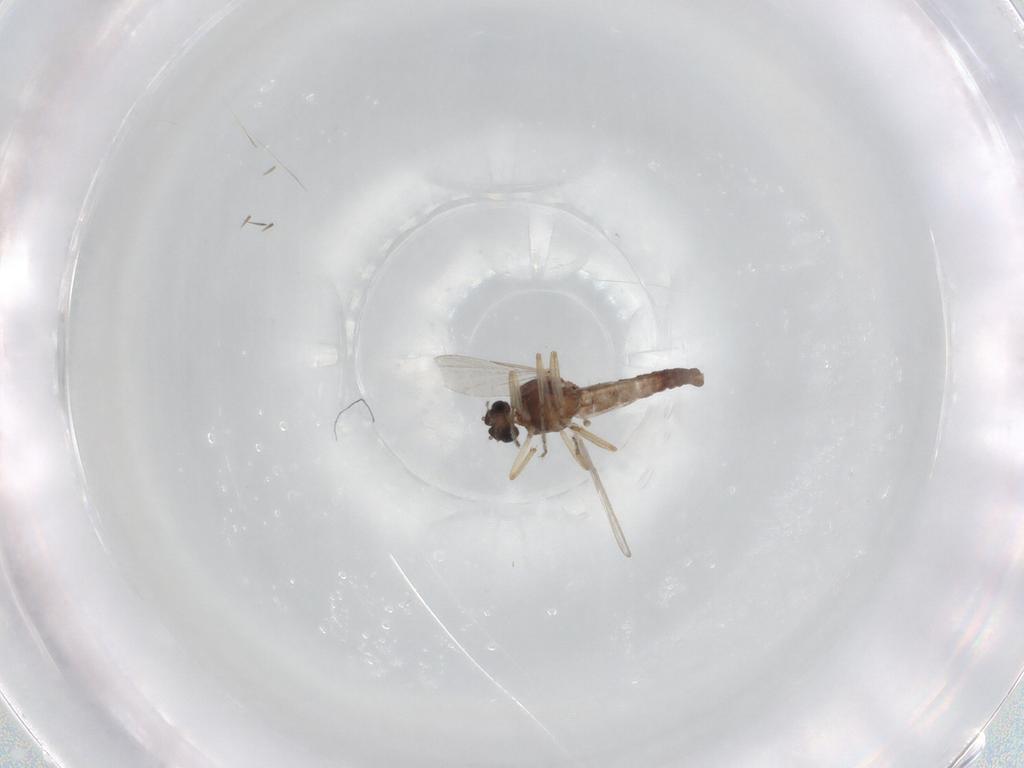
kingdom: Animalia
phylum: Arthropoda
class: Insecta
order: Diptera
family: Ceratopogonidae
